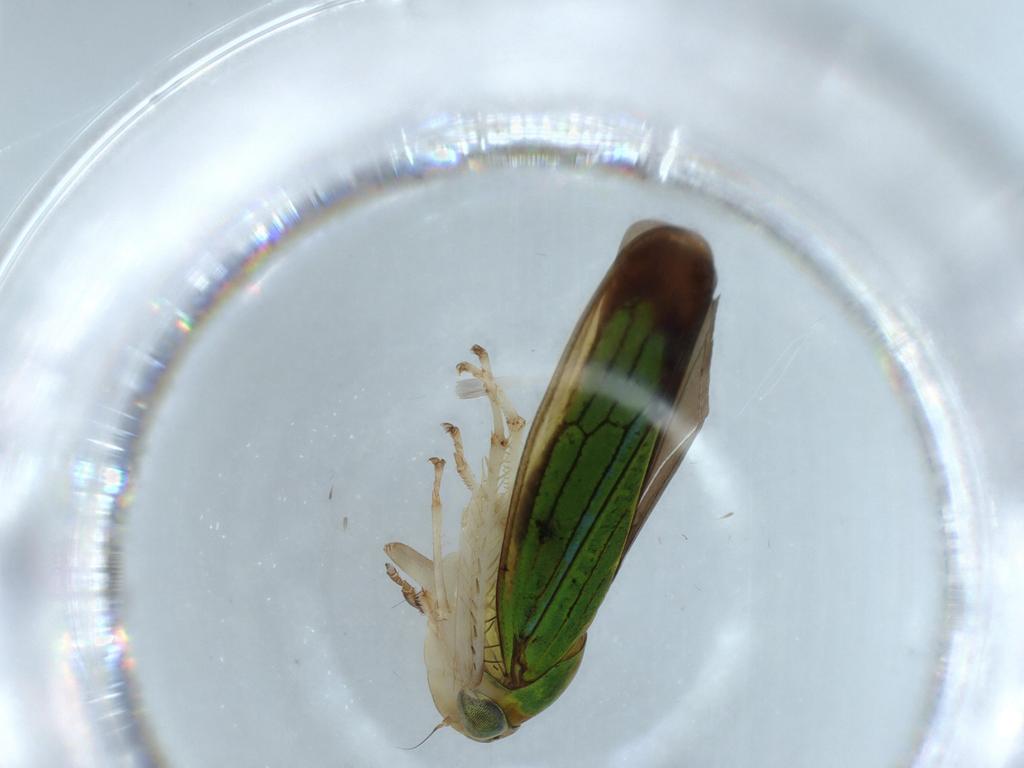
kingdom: Animalia
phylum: Arthropoda
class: Insecta
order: Hemiptera
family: Cicadellidae
